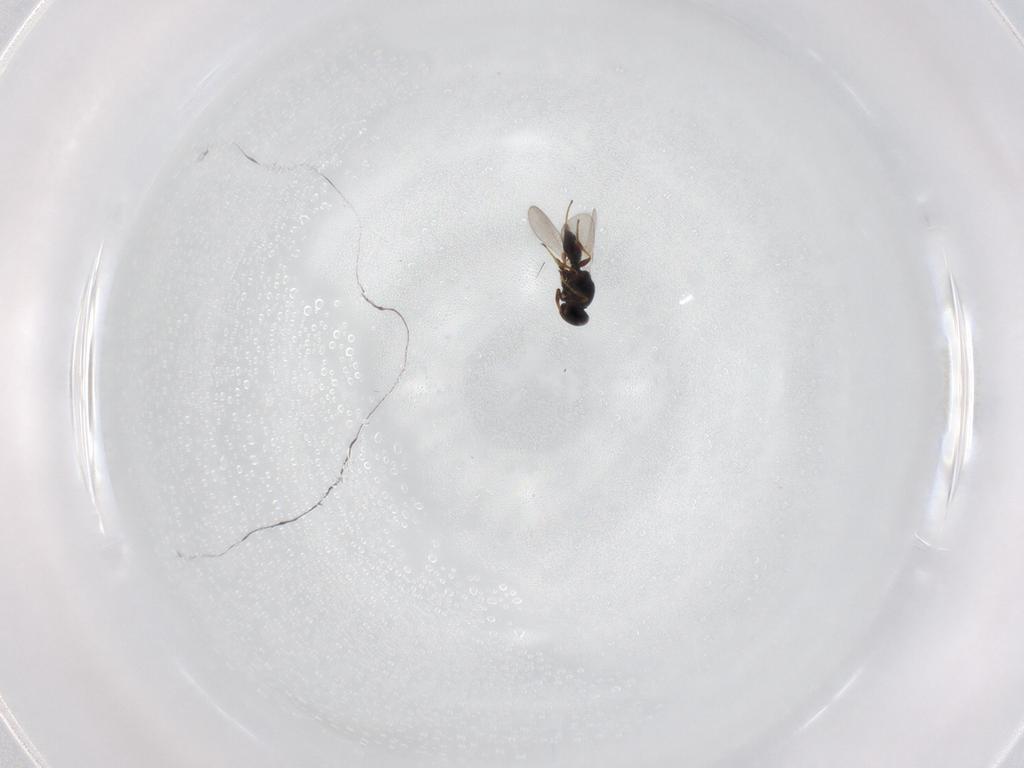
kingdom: Animalia
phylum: Arthropoda
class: Insecta
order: Hymenoptera
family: Platygastridae
